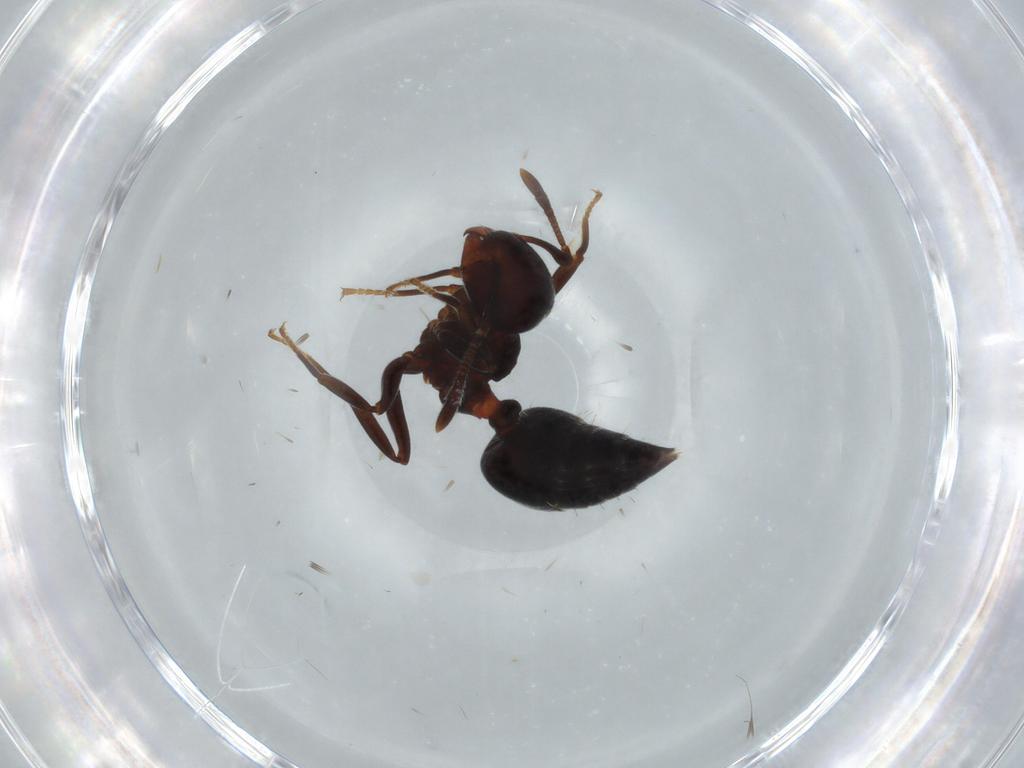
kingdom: Animalia
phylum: Arthropoda
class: Insecta
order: Hymenoptera
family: Formicidae
